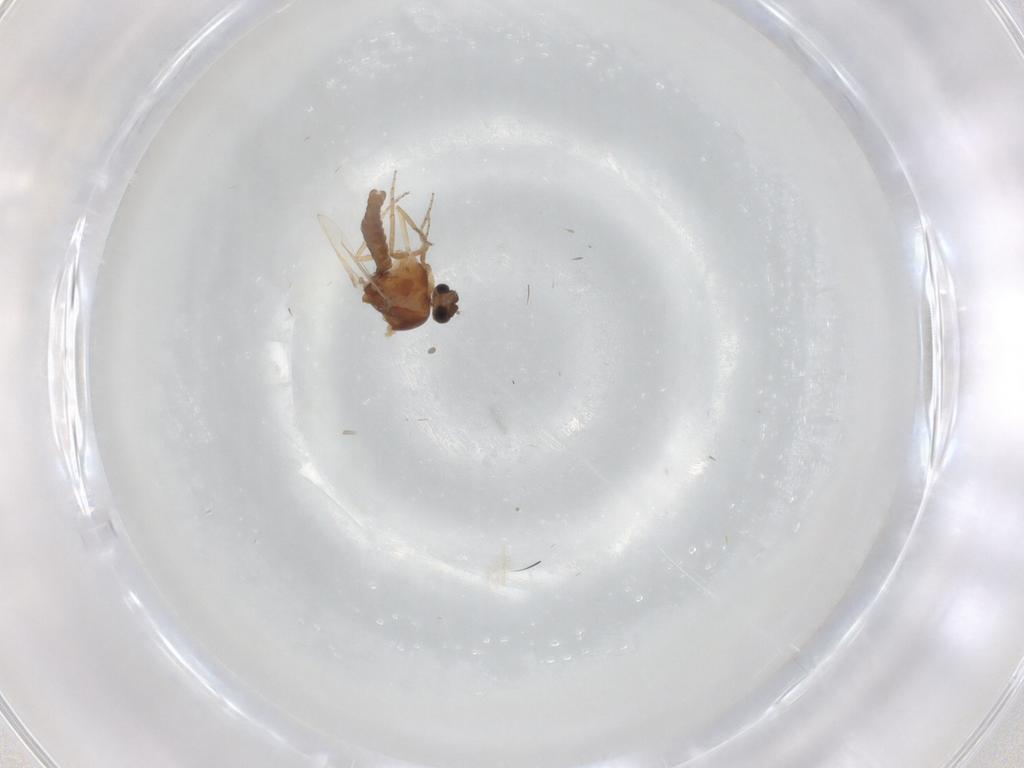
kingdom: Animalia
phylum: Arthropoda
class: Insecta
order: Diptera
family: Ceratopogonidae
